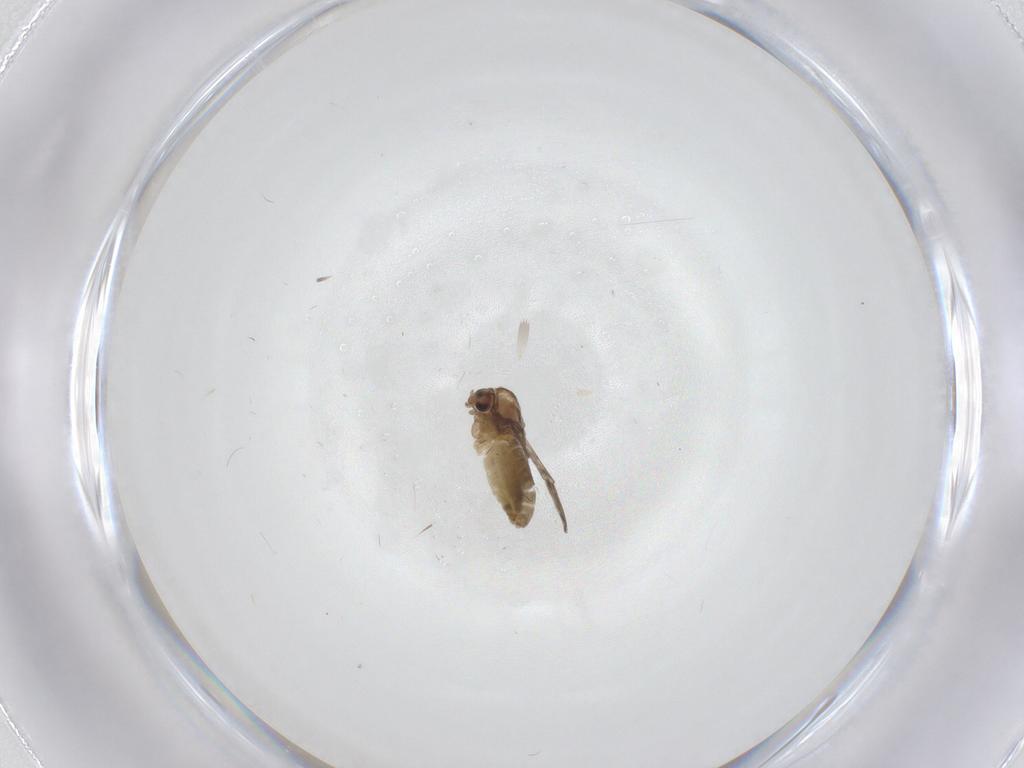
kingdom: Animalia
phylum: Arthropoda
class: Insecta
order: Diptera
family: Chironomidae
